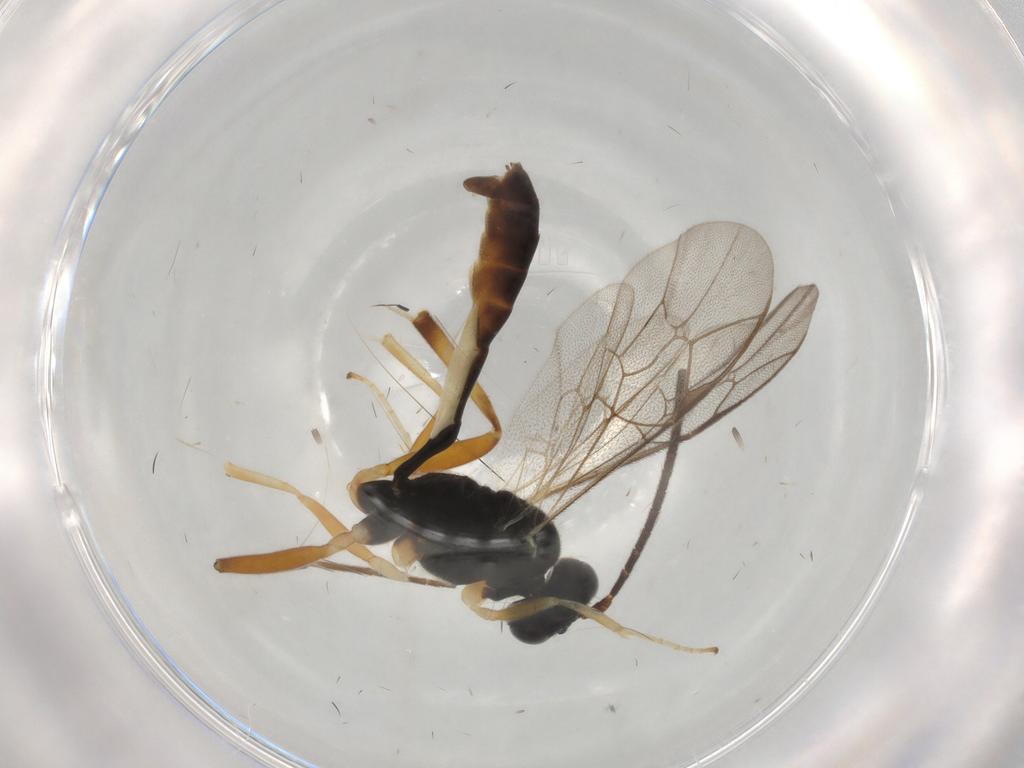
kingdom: Animalia
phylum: Arthropoda
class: Insecta
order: Hymenoptera
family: Ichneumonidae
